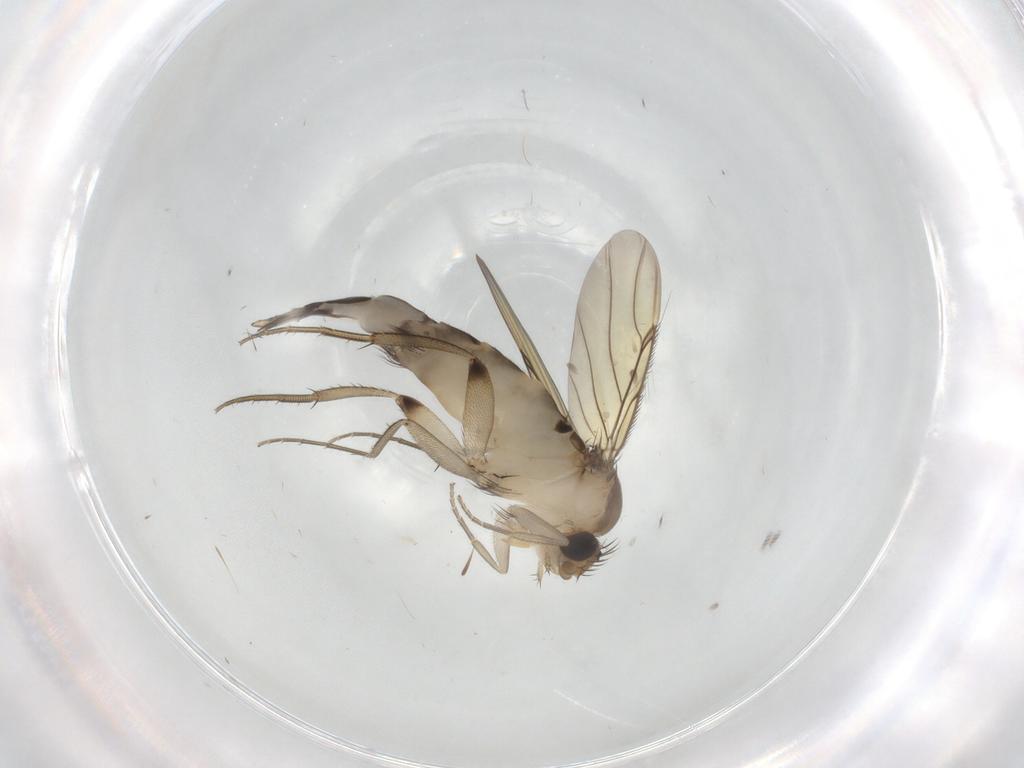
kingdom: Animalia
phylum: Arthropoda
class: Insecta
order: Diptera
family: Phoridae
